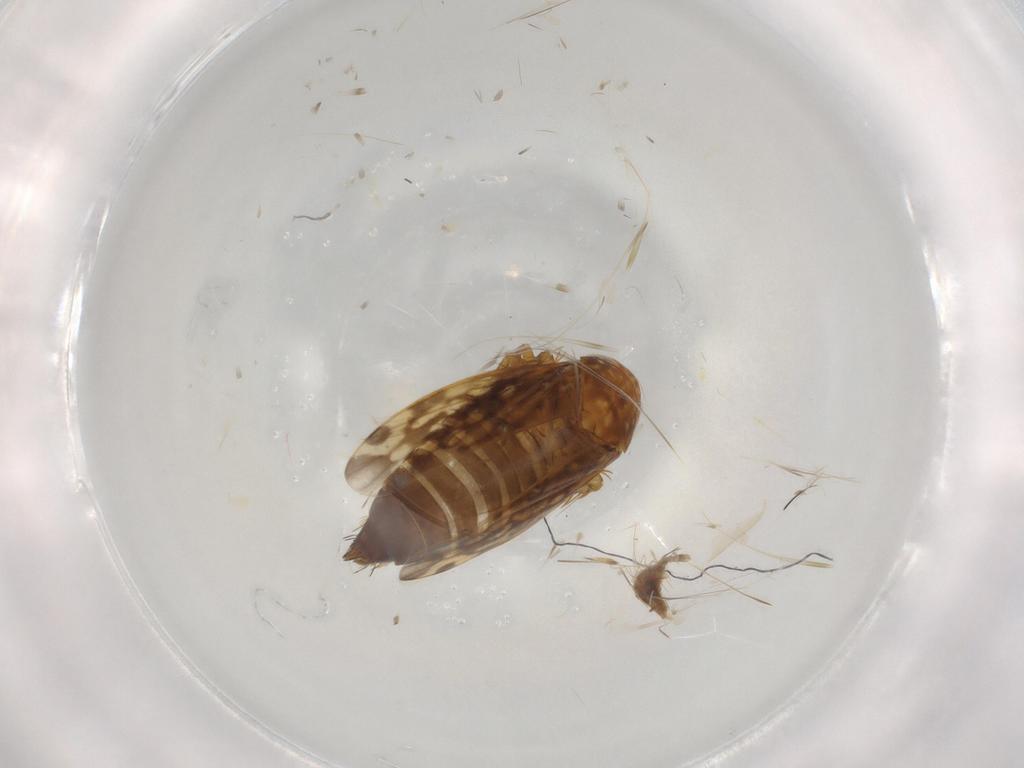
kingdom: Animalia
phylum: Arthropoda
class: Insecta
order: Hemiptera
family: Cicadellidae
